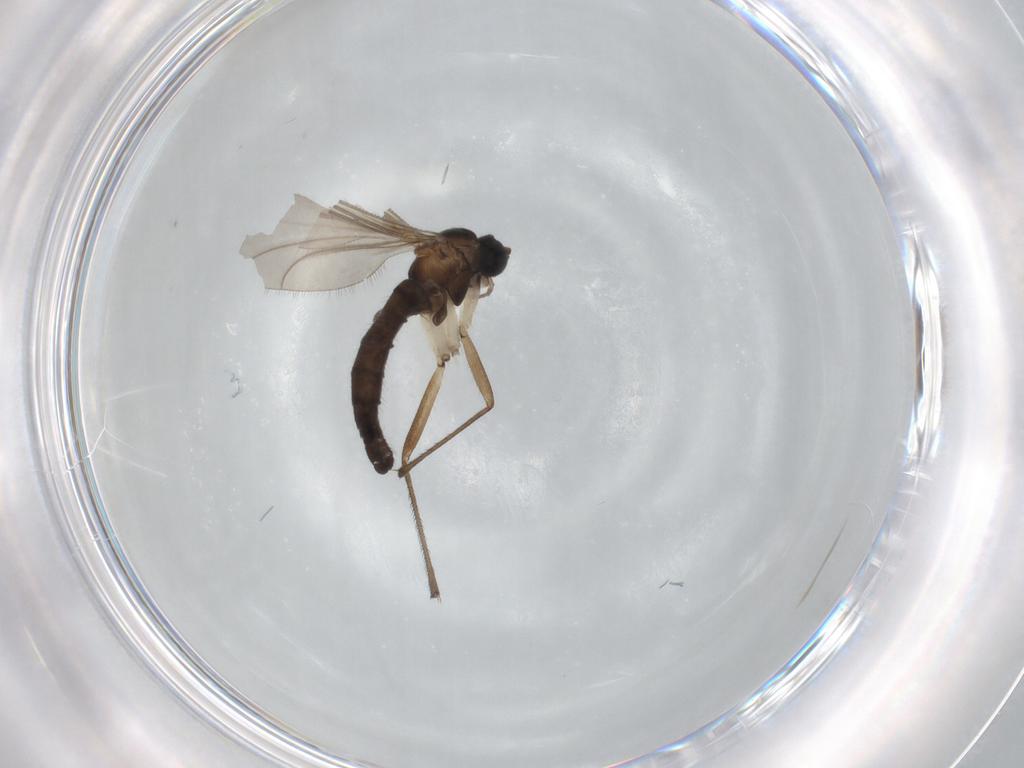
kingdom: Animalia
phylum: Arthropoda
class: Insecta
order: Diptera
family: Sciaridae
